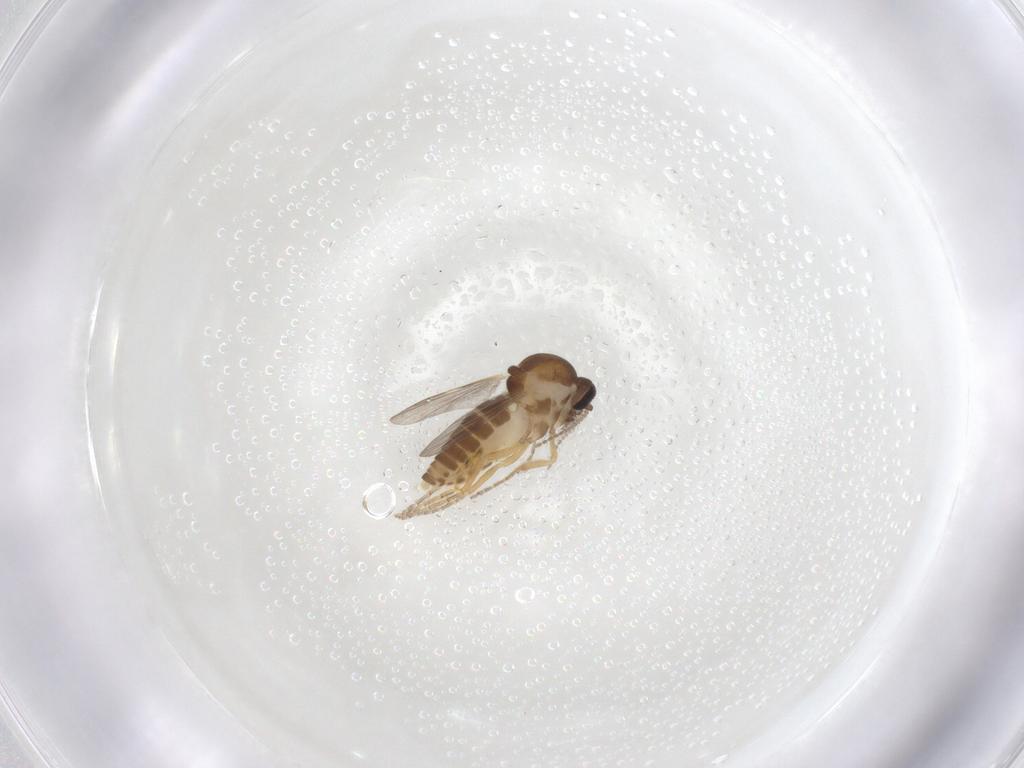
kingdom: Animalia
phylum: Arthropoda
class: Insecta
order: Diptera
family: Ceratopogonidae
